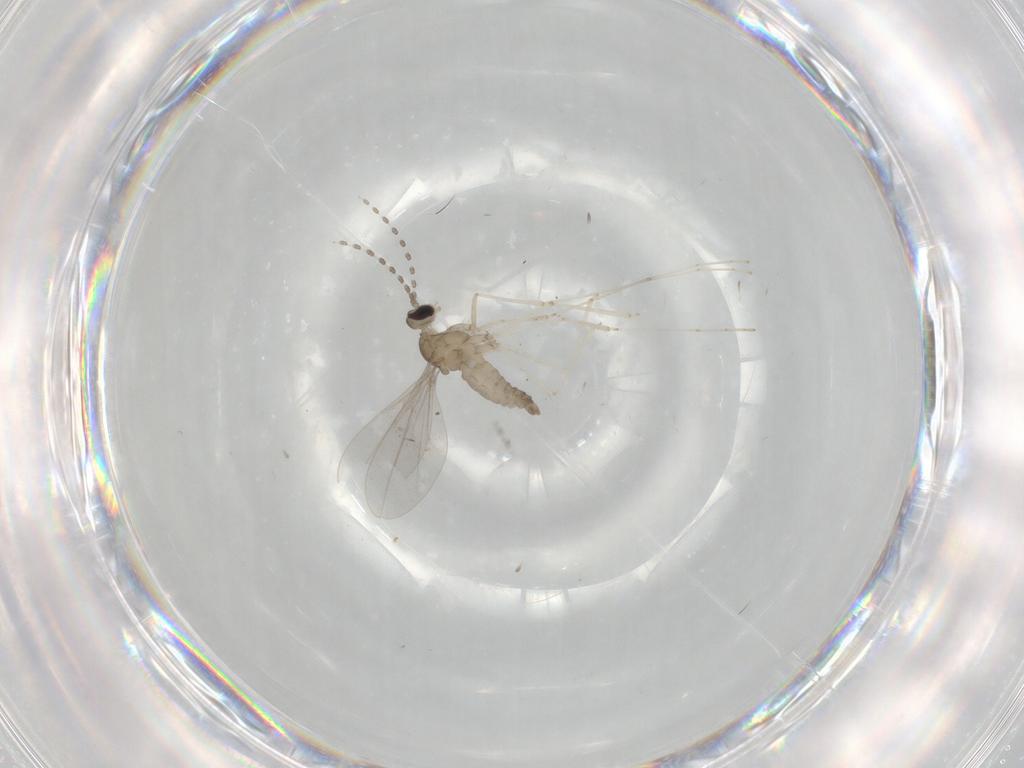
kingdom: Animalia
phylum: Arthropoda
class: Insecta
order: Diptera
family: Cecidomyiidae
